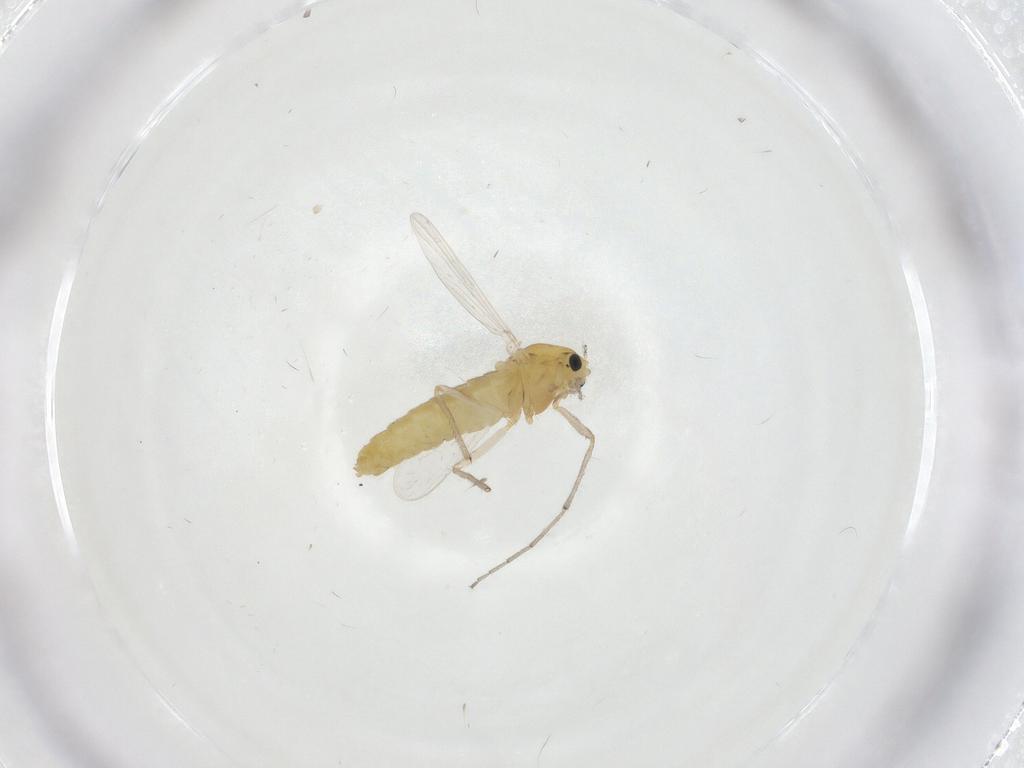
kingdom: Animalia
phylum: Arthropoda
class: Insecta
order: Diptera
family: Chironomidae
